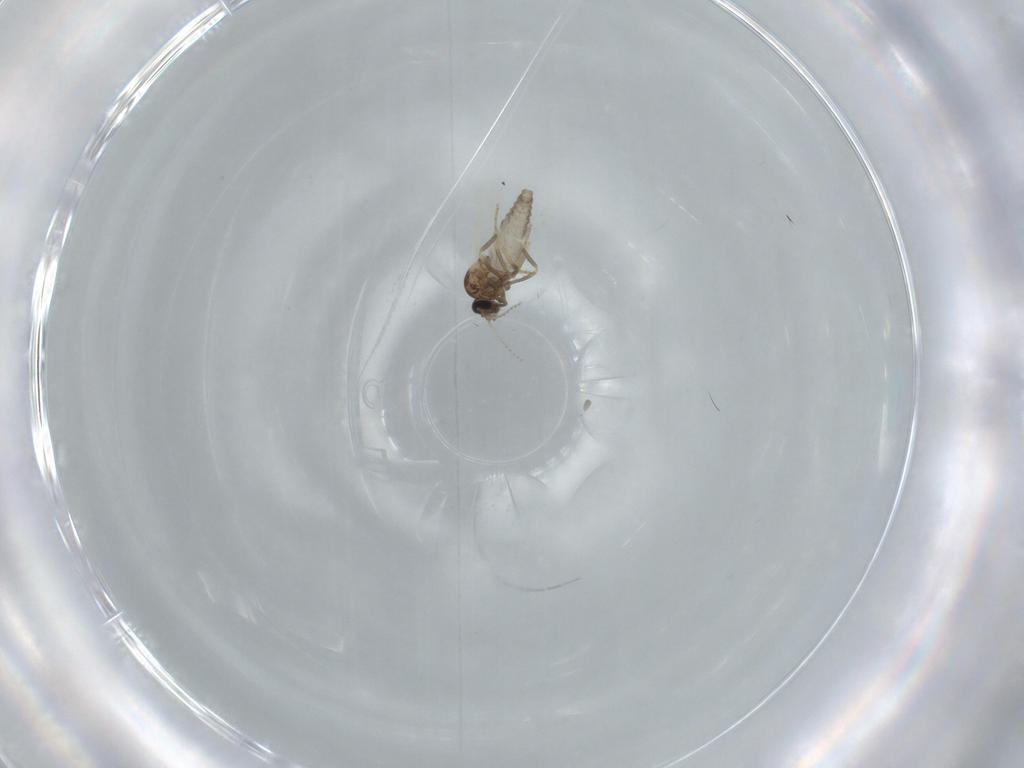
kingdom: Animalia
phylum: Arthropoda
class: Insecta
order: Diptera
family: Ceratopogonidae
